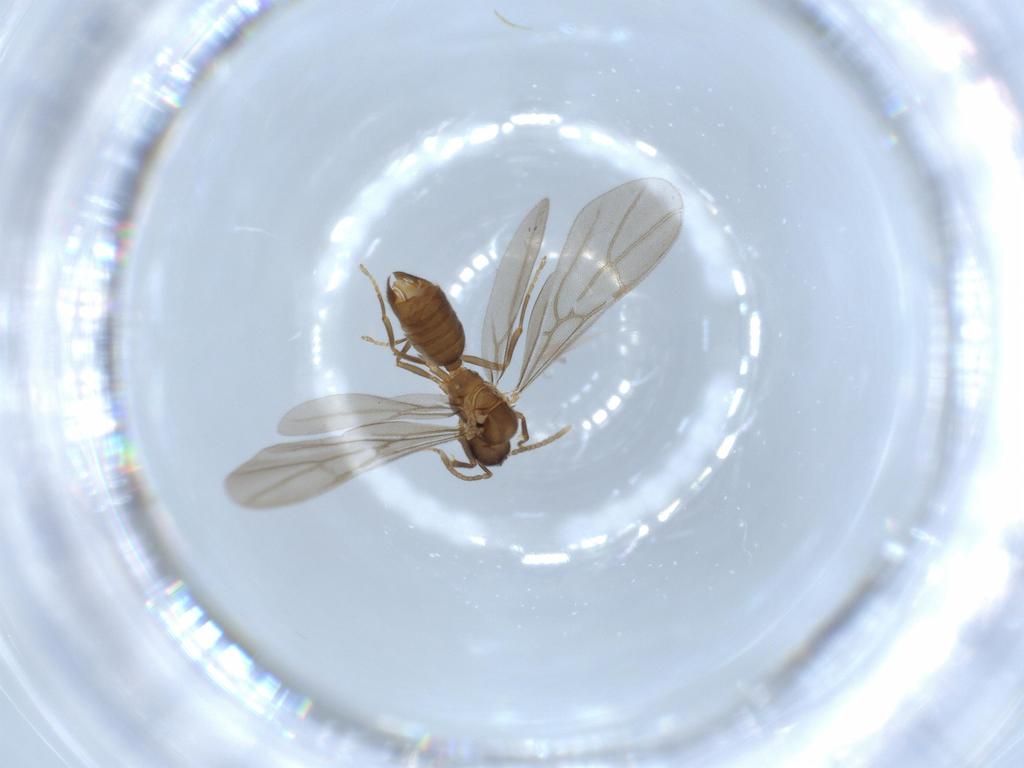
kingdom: Animalia
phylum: Arthropoda
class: Insecta
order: Hymenoptera
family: Formicidae
